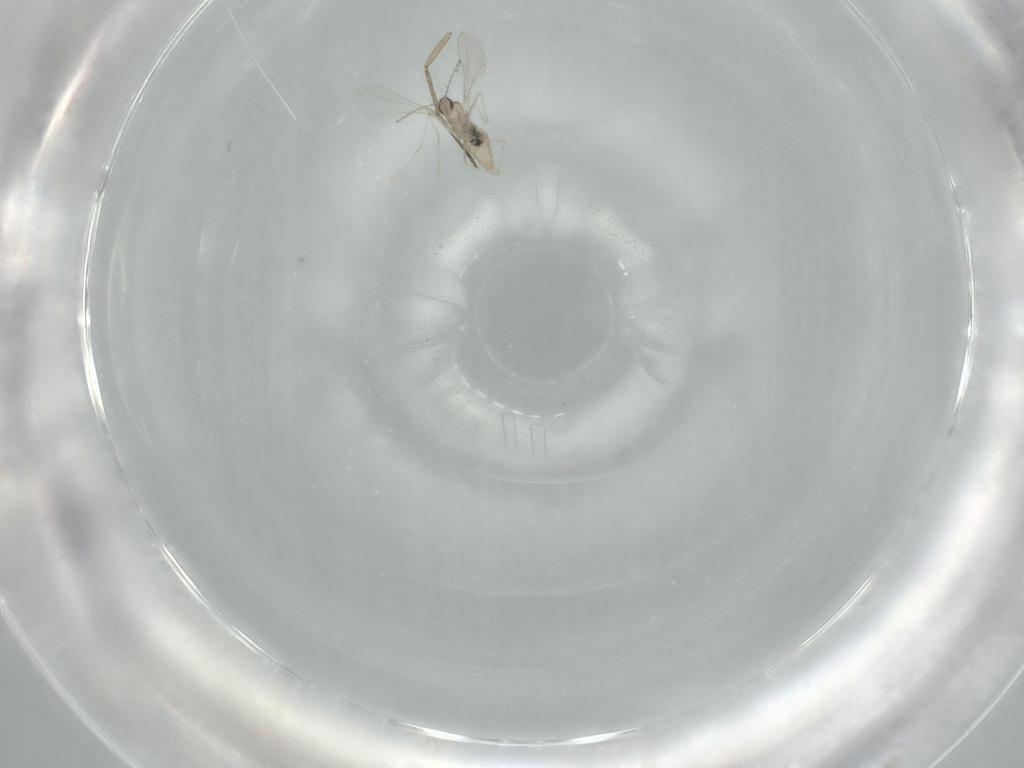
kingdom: Animalia
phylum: Arthropoda
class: Insecta
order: Diptera
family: Cecidomyiidae
